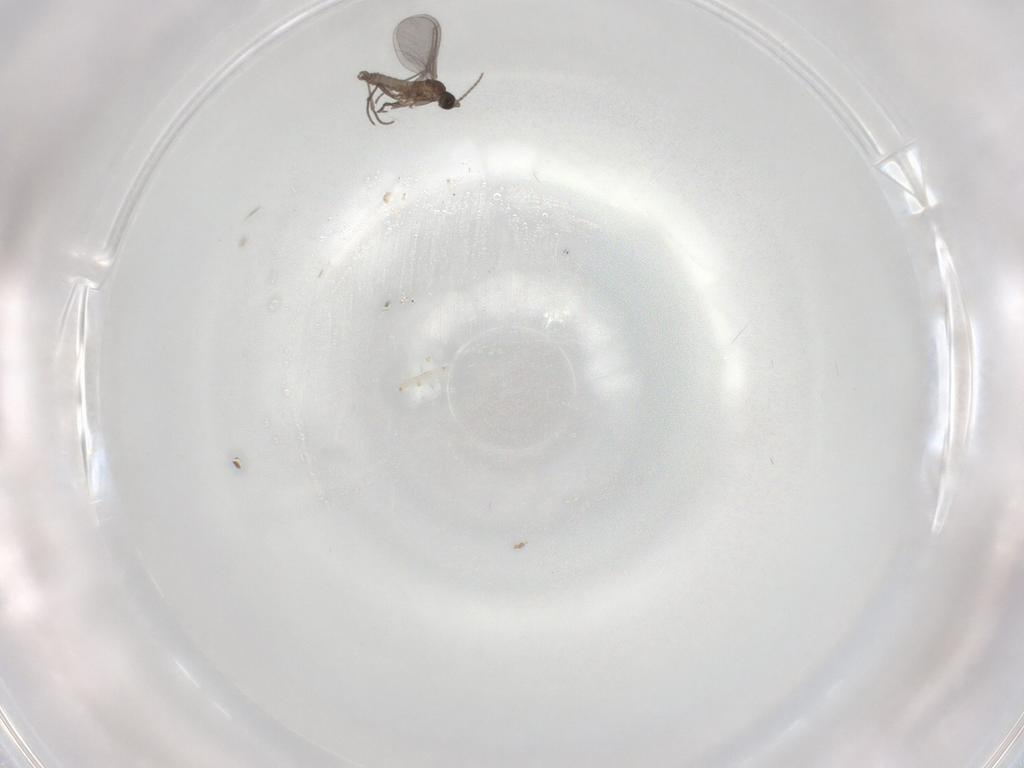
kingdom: Animalia
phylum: Arthropoda
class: Insecta
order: Diptera
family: Sciaridae
